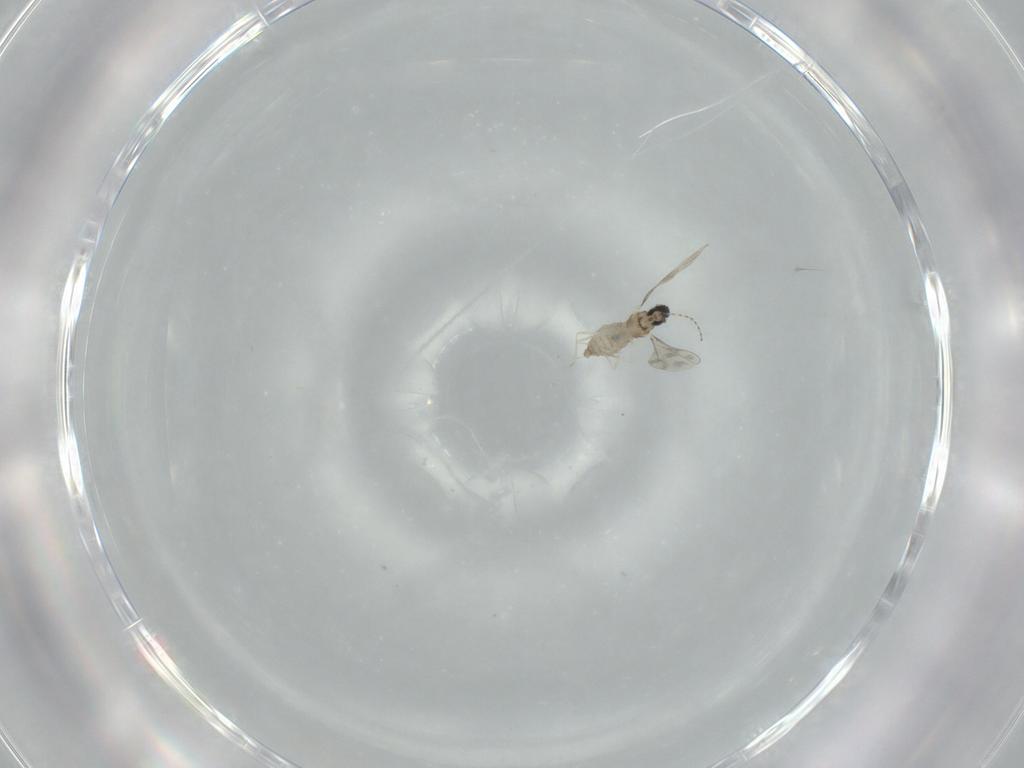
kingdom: Animalia
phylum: Arthropoda
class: Insecta
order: Diptera
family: Cecidomyiidae
